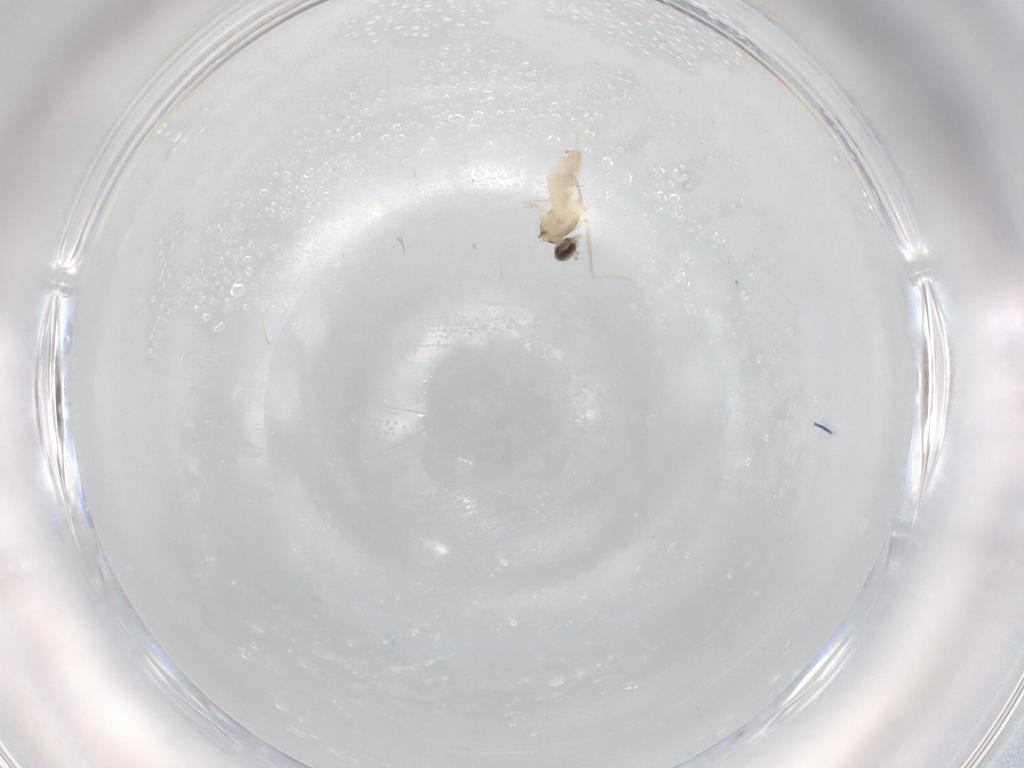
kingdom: Animalia
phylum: Arthropoda
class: Insecta
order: Diptera
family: Cecidomyiidae
